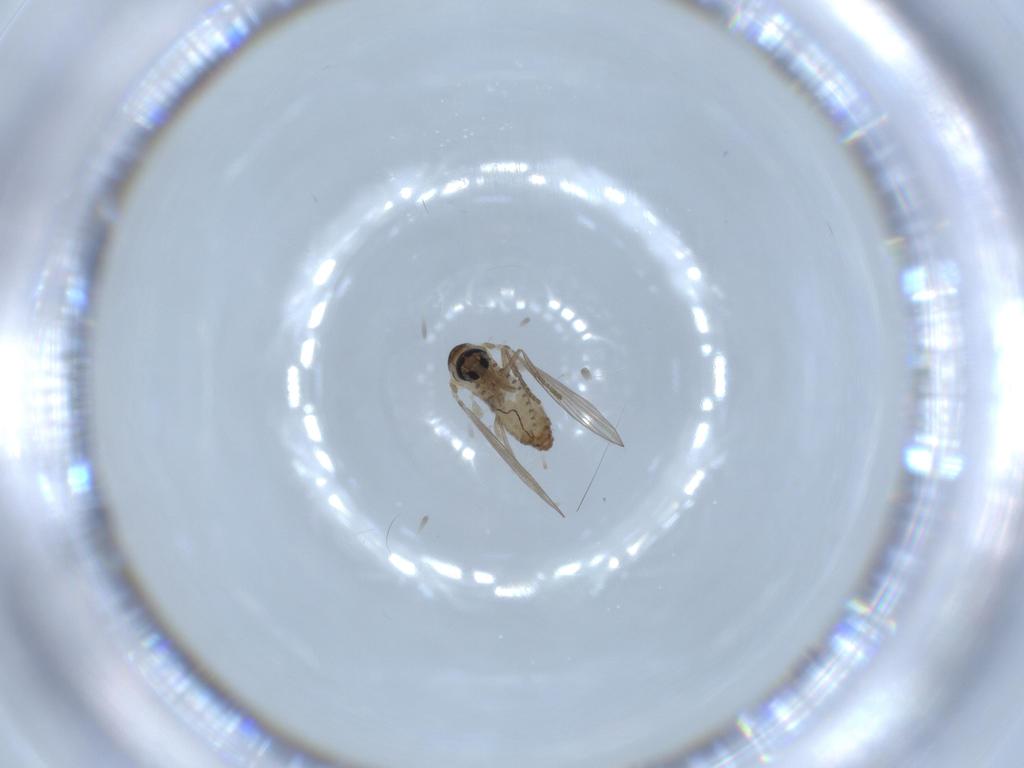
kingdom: Animalia
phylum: Arthropoda
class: Insecta
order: Diptera
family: Psychodidae
